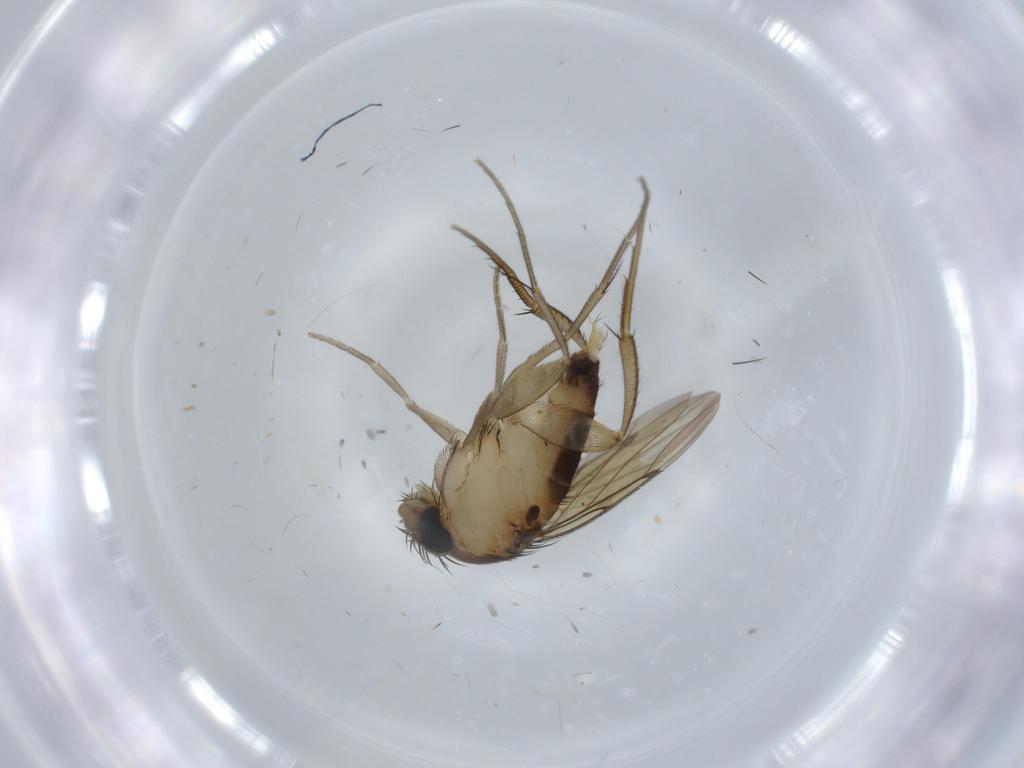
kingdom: Animalia
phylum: Arthropoda
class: Insecta
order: Diptera
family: Phoridae
